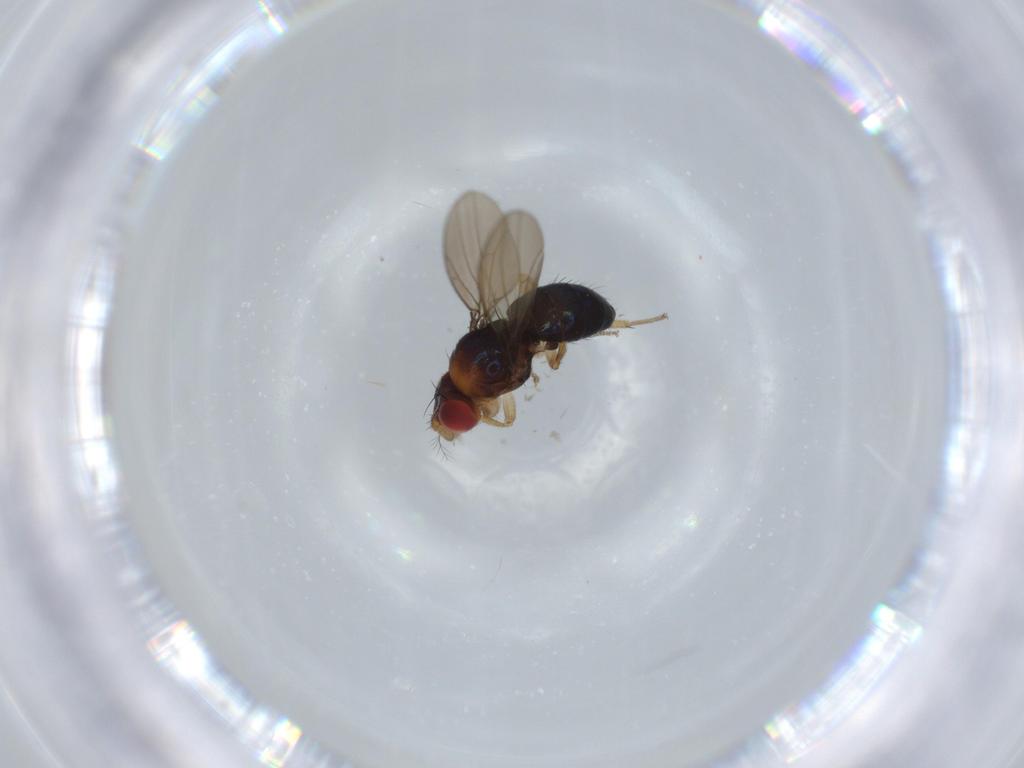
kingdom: Animalia
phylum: Arthropoda
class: Insecta
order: Diptera
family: Drosophilidae
